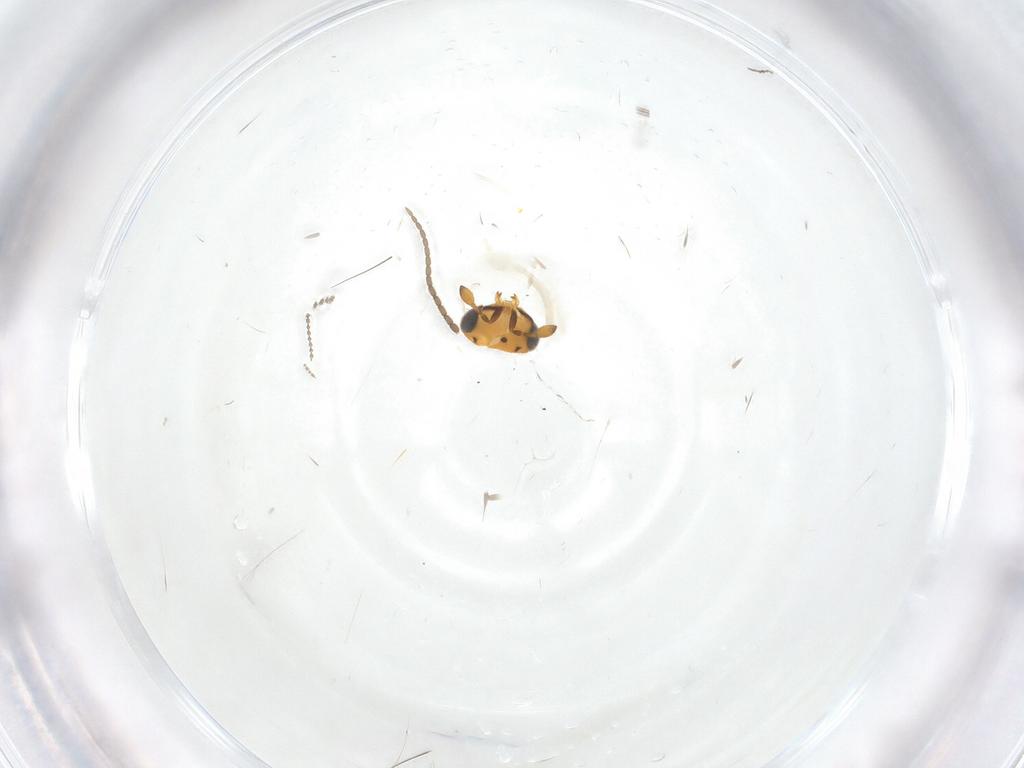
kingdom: Animalia
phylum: Arthropoda
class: Insecta
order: Hymenoptera
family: Scelionidae
